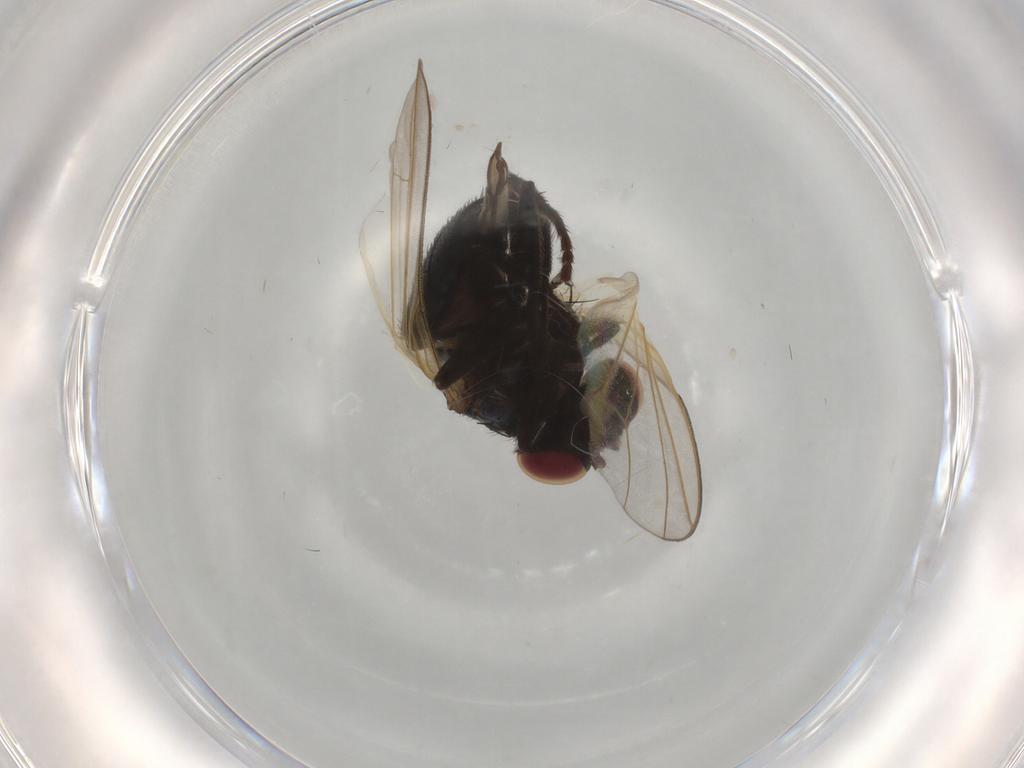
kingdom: Animalia
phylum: Arthropoda
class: Insecta
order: Diptera
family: Lonchaeidae
